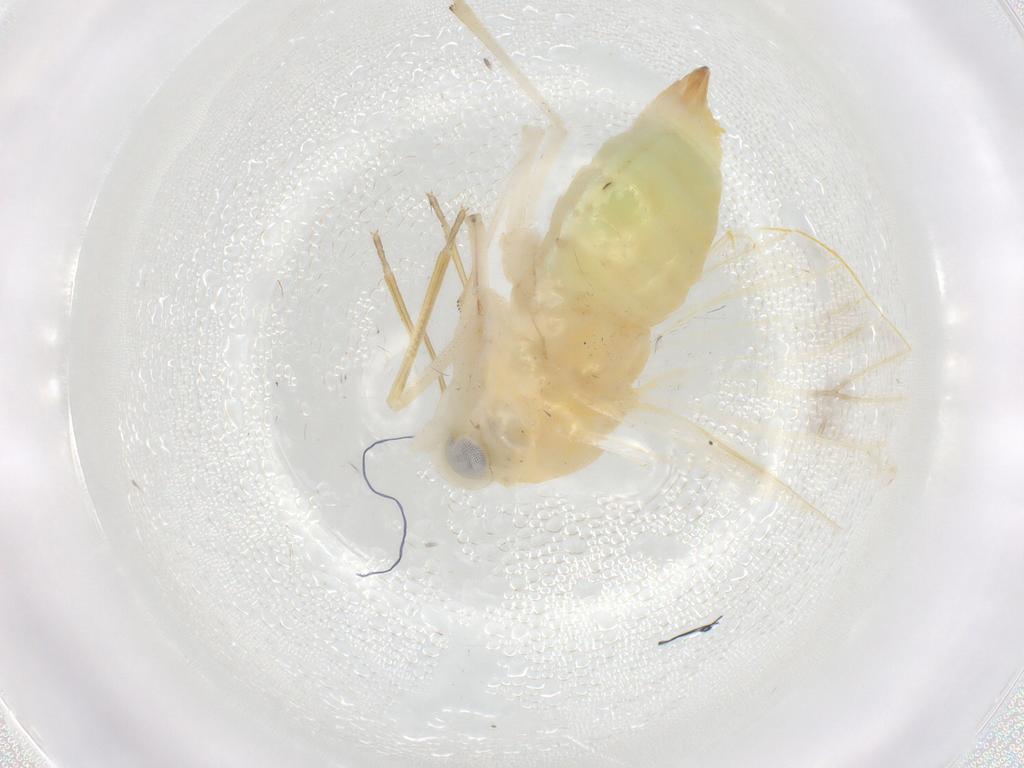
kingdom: Animalia
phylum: Arthropoda
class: Insecta
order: Hemiptera
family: Derbidae
